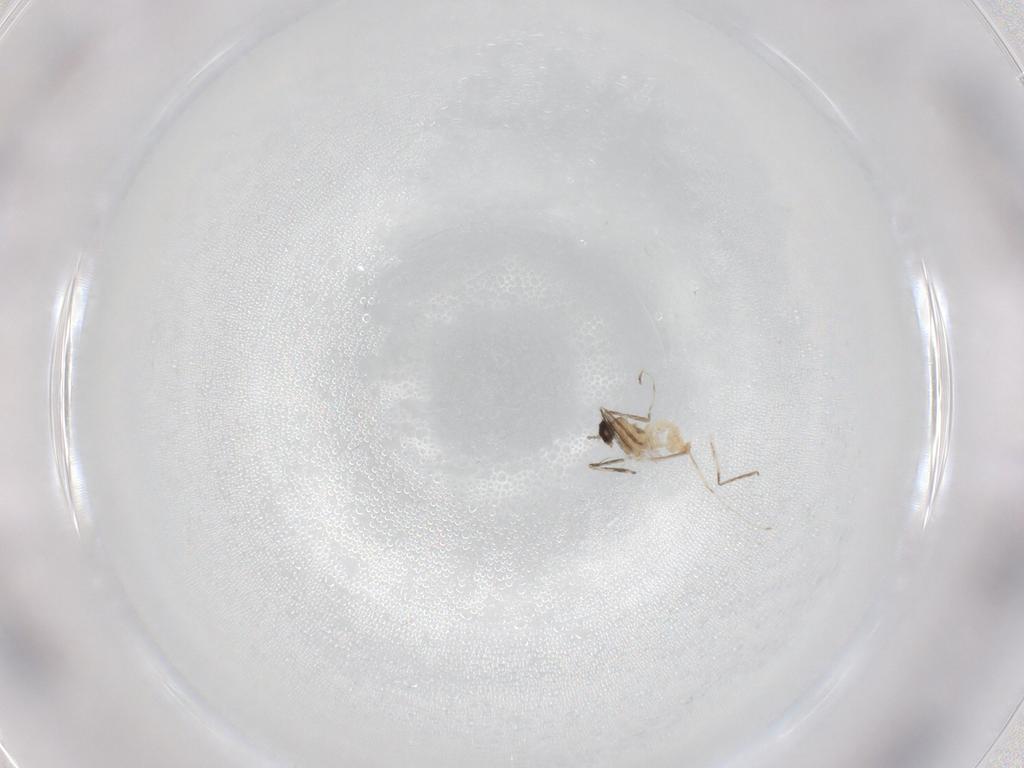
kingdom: Animalia
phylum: Arthropoda
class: Insecta
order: Diptera
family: Cecidomyiidae
